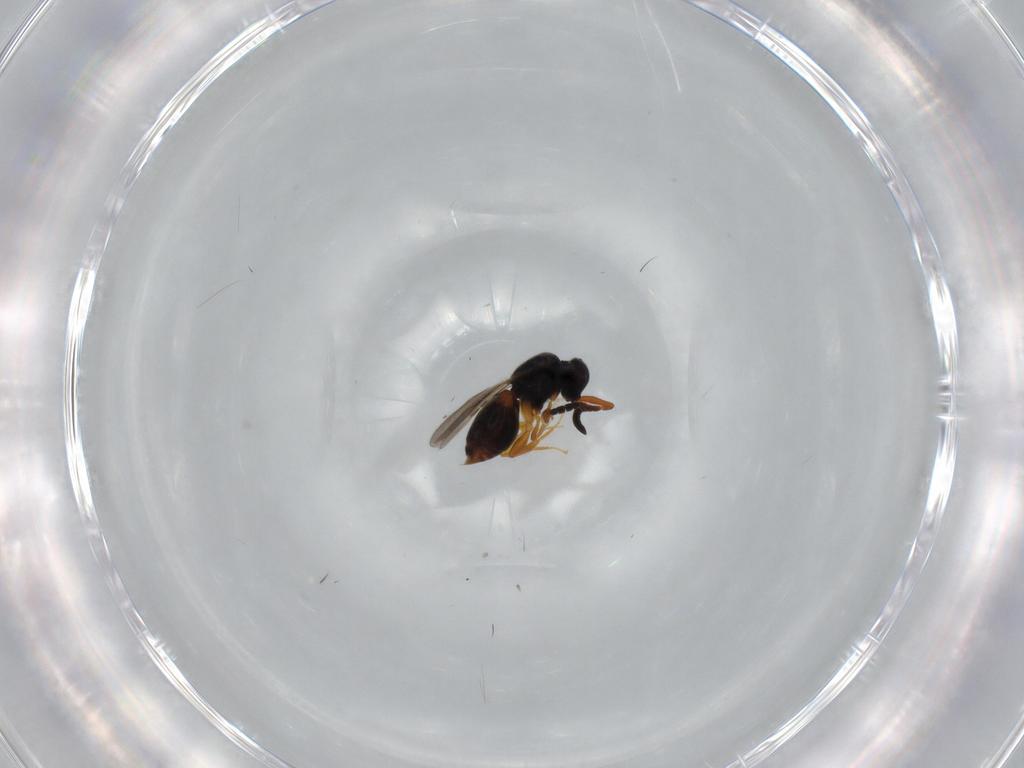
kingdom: Animalia
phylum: Arthropoda
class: Insecta
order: Hymenoptera
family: Ceraphronidae
